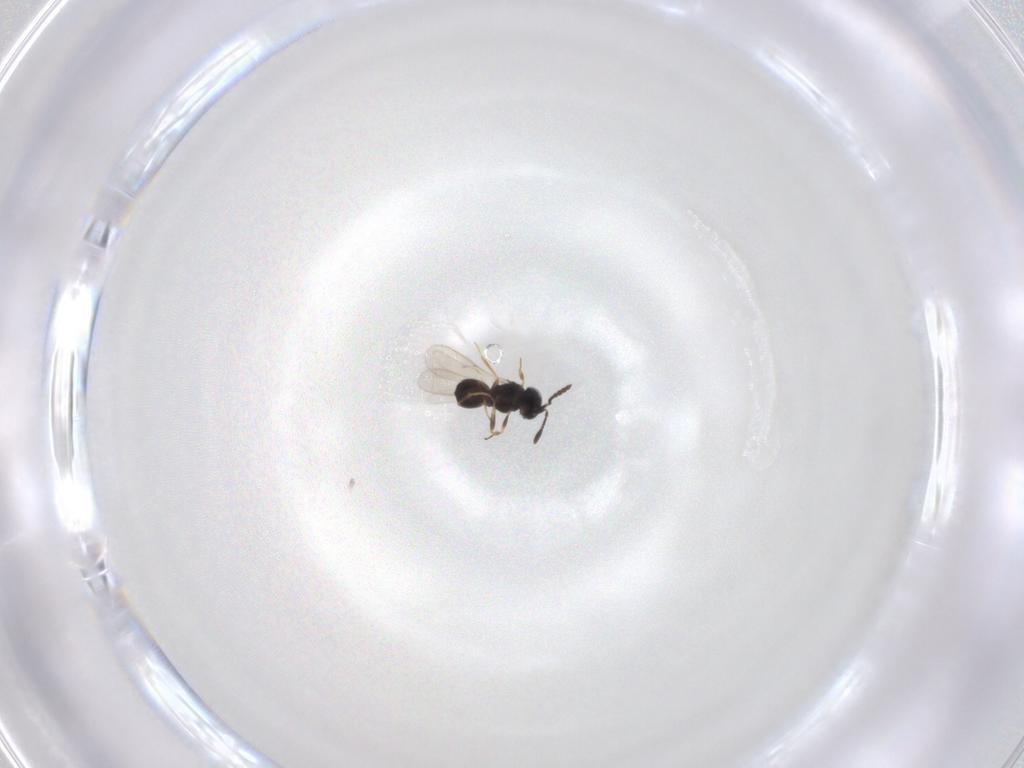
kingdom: Animalia
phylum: Arthropoda
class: Insecta
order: Hymenoptera
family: Scelionidae
